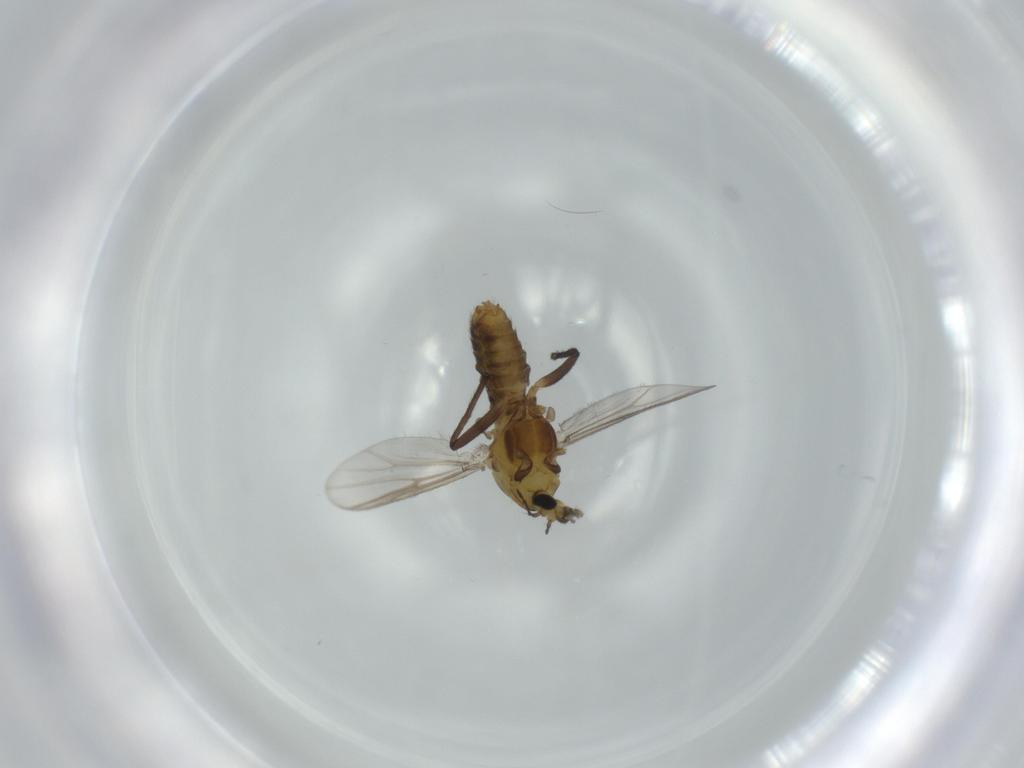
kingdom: Animalia
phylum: Arthropoda
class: Insecta
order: Diptera
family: Chironomidae
